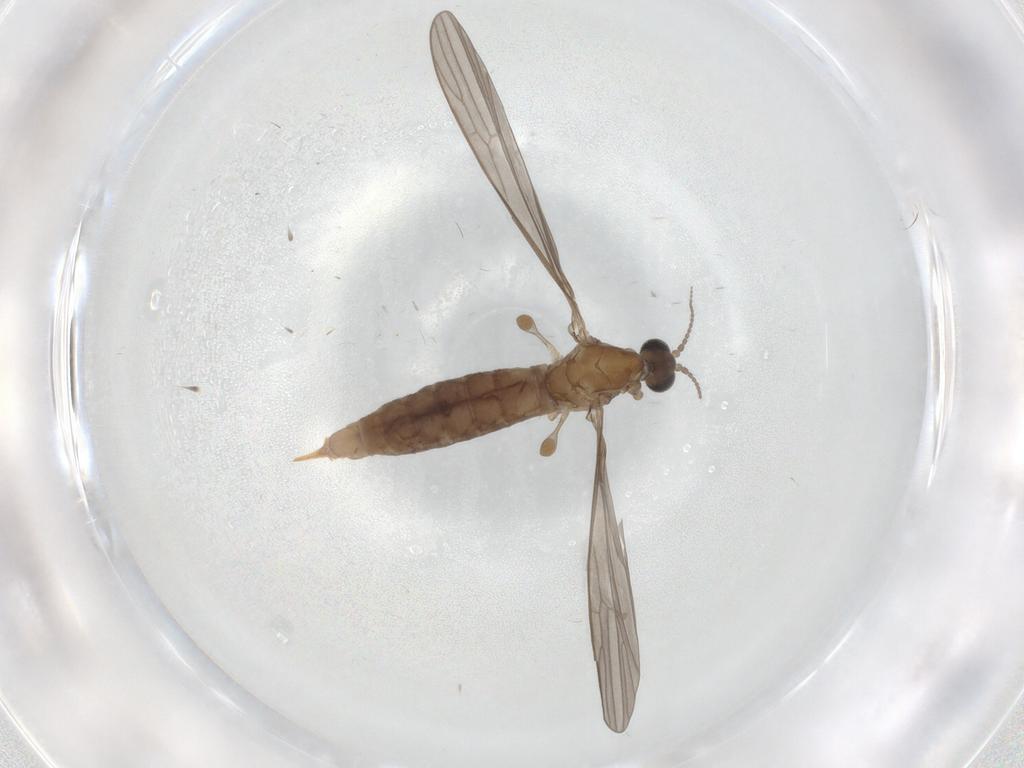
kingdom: Animalia
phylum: Arthropoda
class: Insecta
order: Diptera
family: Limoniidae
